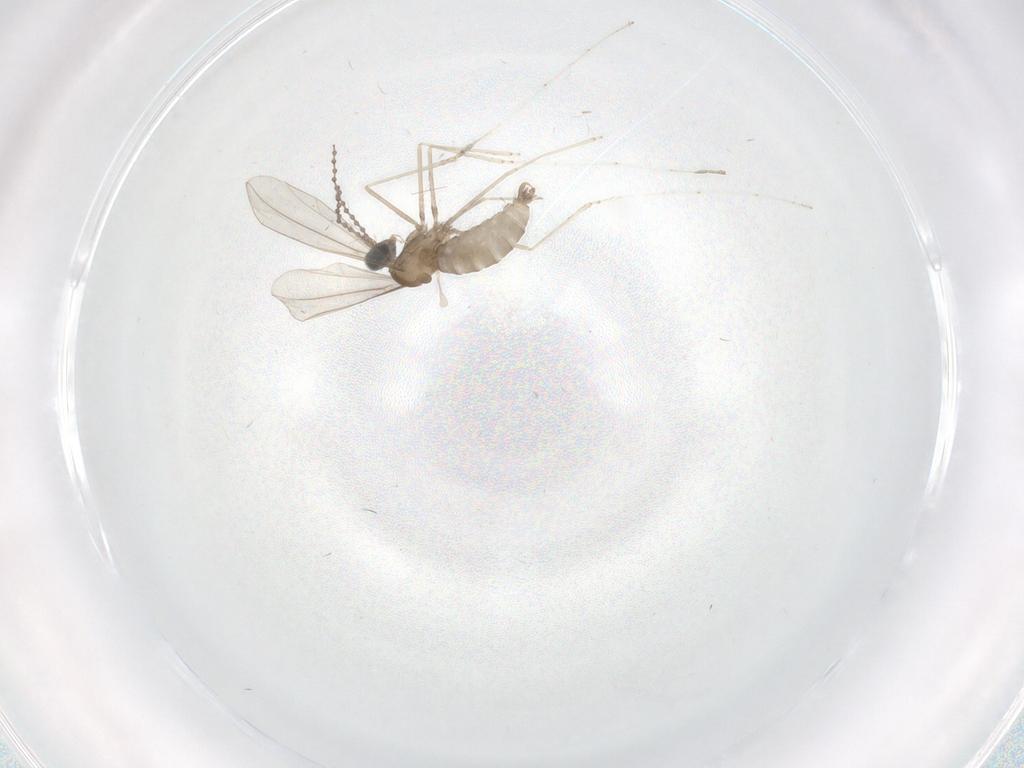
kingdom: Animalia
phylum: Arthropoda
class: Insecta
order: Diptera
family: Cecidomyiidae
